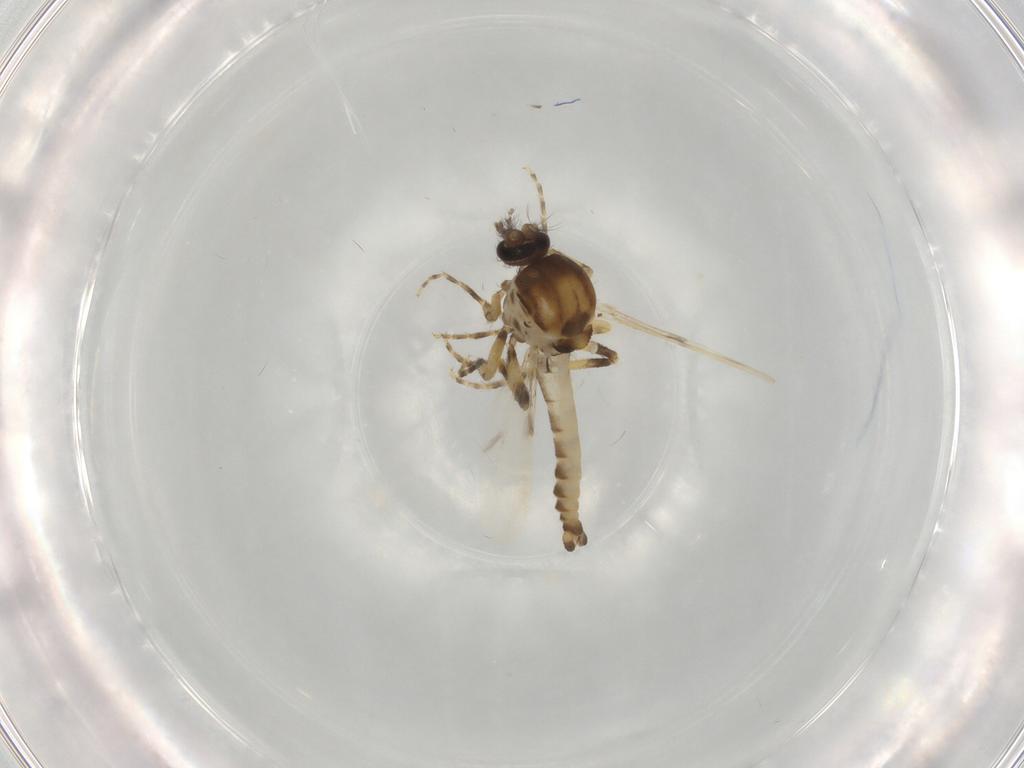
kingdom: Animalia
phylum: Arthropoda
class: Insecta
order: Diptera
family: Ceratopogonidae
